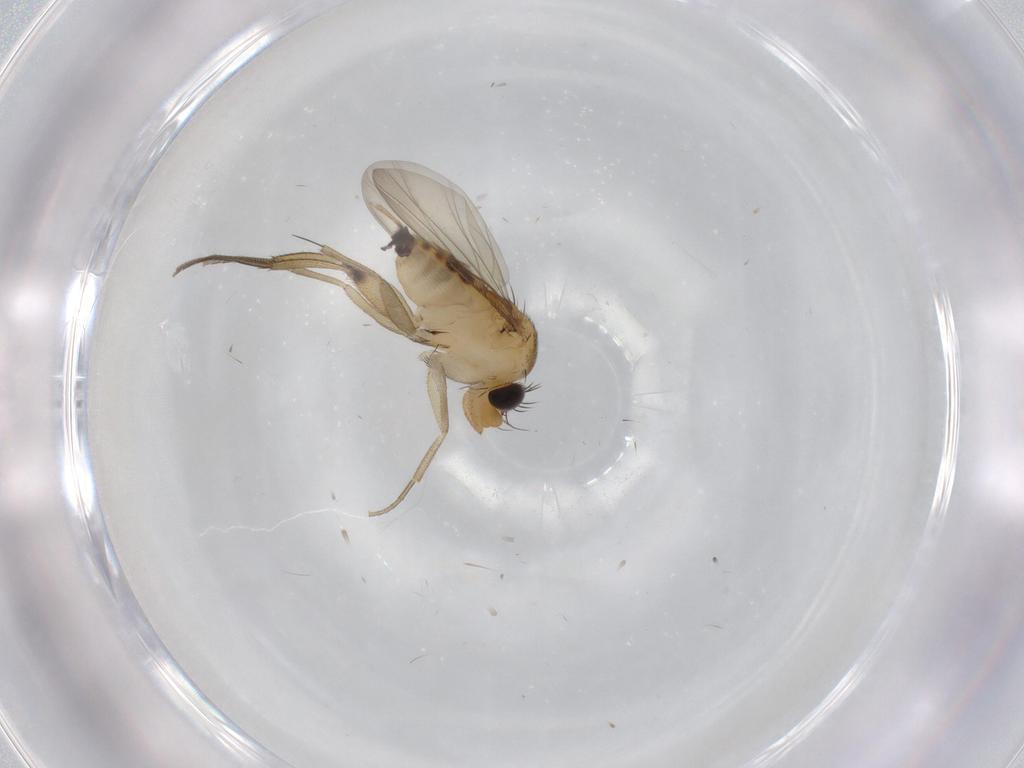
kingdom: Animalia
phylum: Arthropoda
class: Insecta
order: Diptera
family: Phoridae
